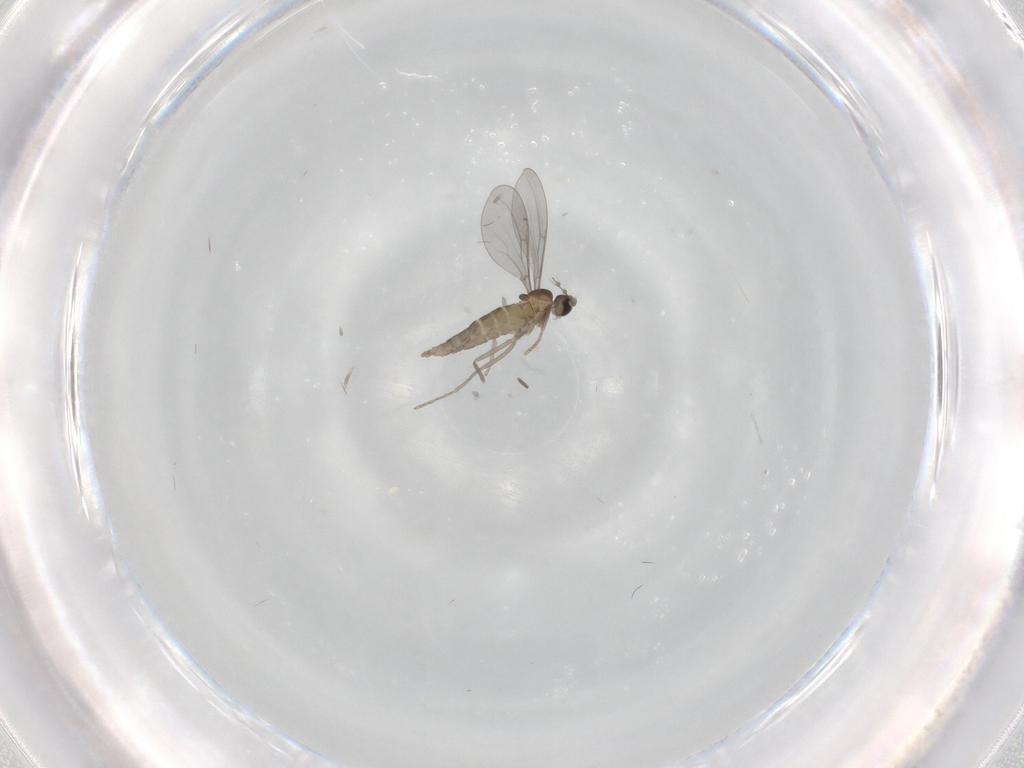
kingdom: Animalia
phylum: Arthropoda
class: Insecta
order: Diptera
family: Cecidomyiidae
